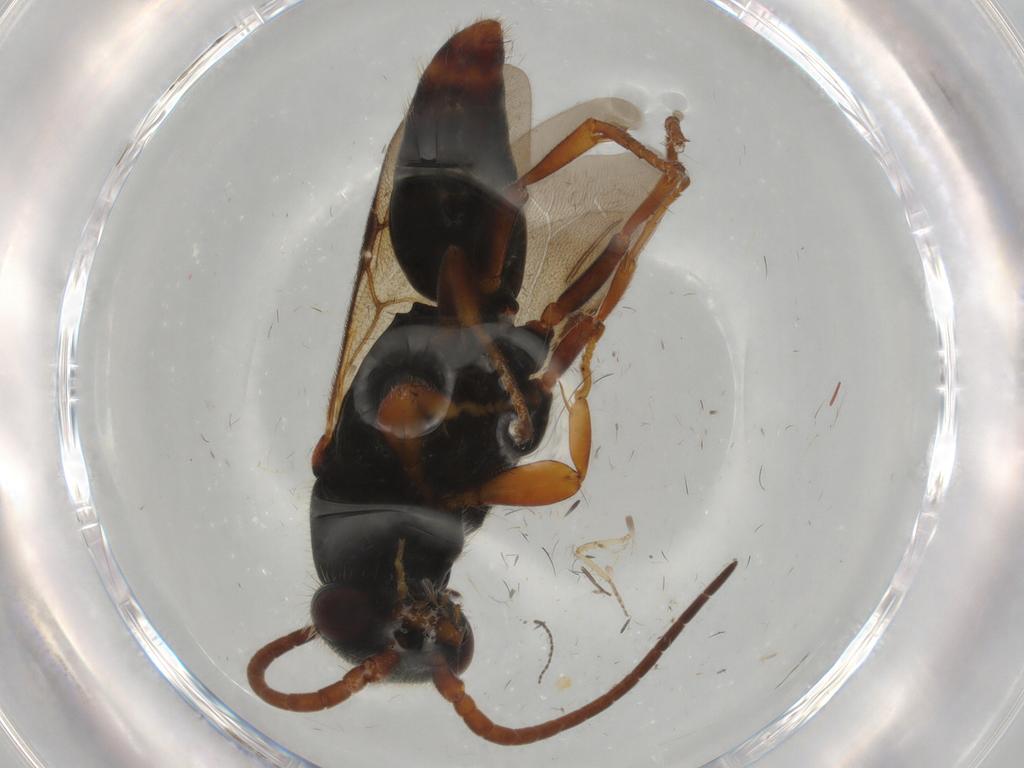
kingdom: Animalia
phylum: Arthropoda
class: Insecta
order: Hymenoptera
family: Bethylidae
